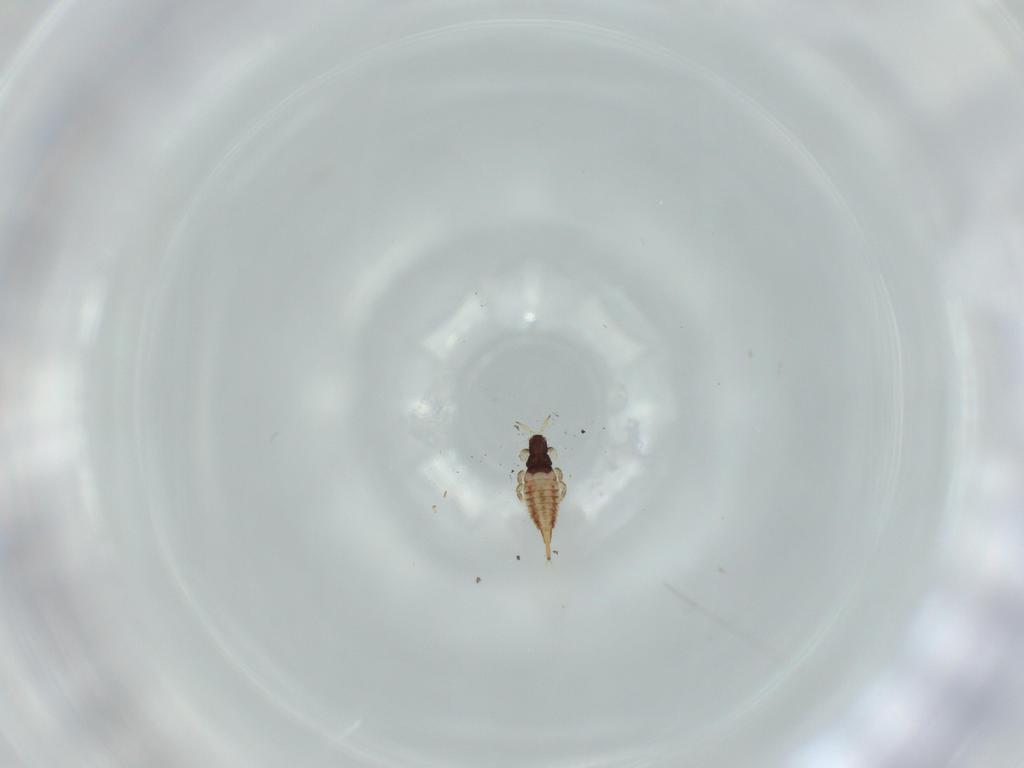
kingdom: Animalia
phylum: Arthropoda
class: Insecta
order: Thysanoptera
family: Phlaeothripidae
